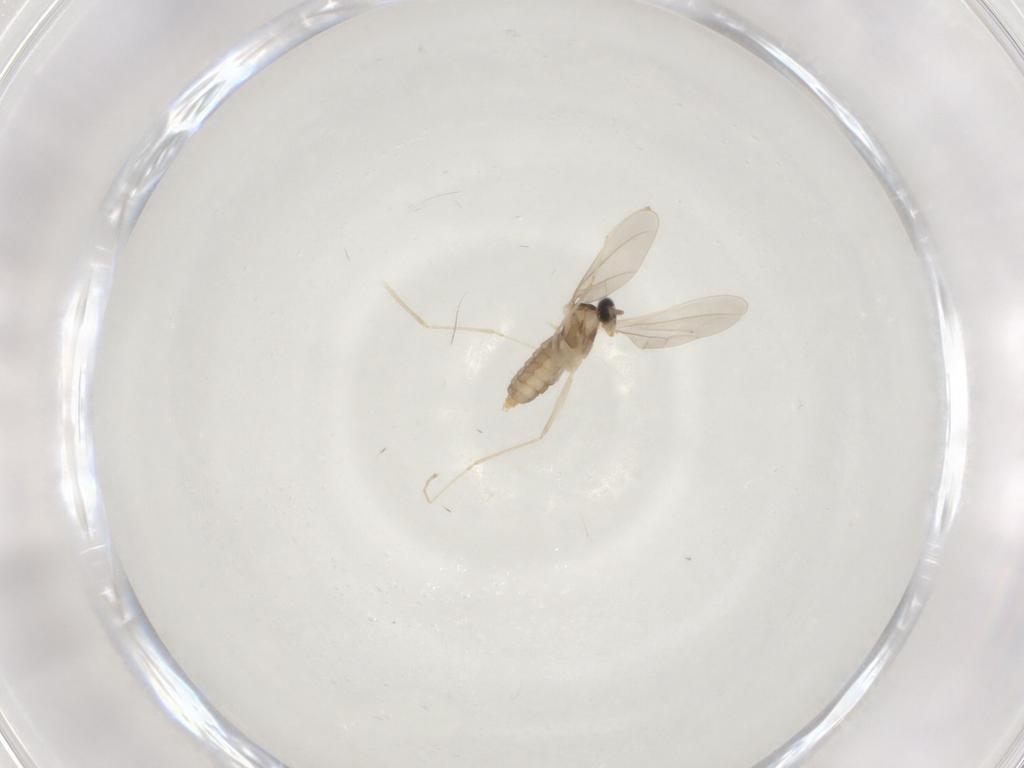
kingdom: Animalia
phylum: Arthropoda
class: Insecta
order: Diptera
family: Cecidomyiidae
